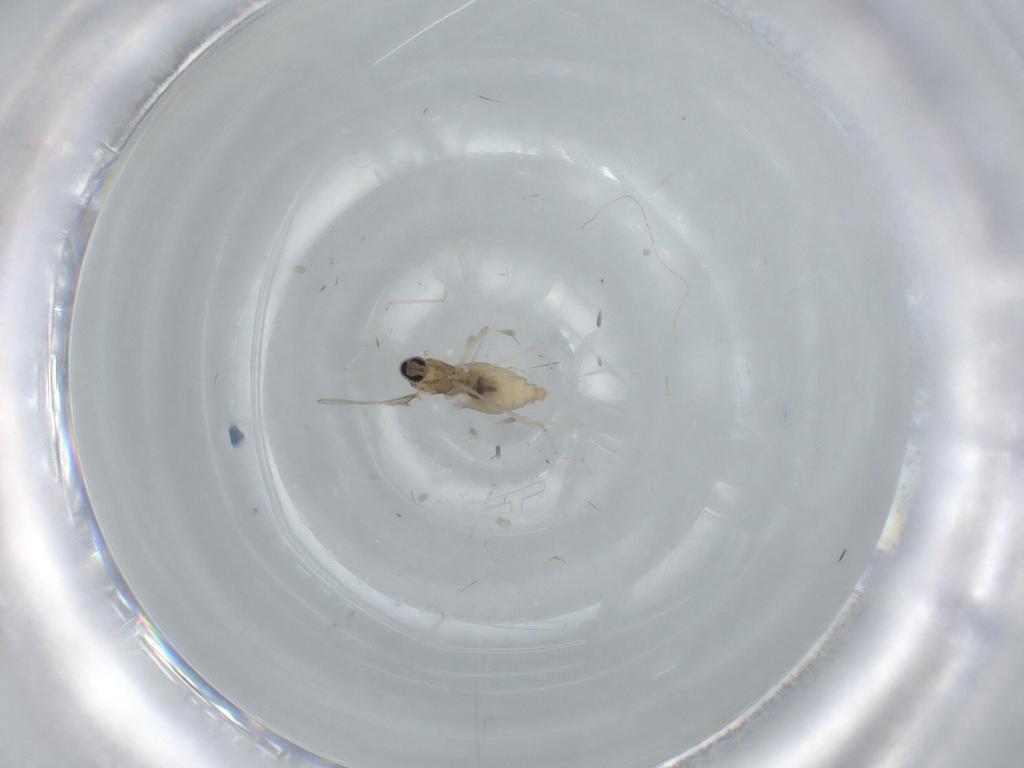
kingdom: Animalia
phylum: Arthropoda
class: Insecta
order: Diptera
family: Cecidomyiidae
